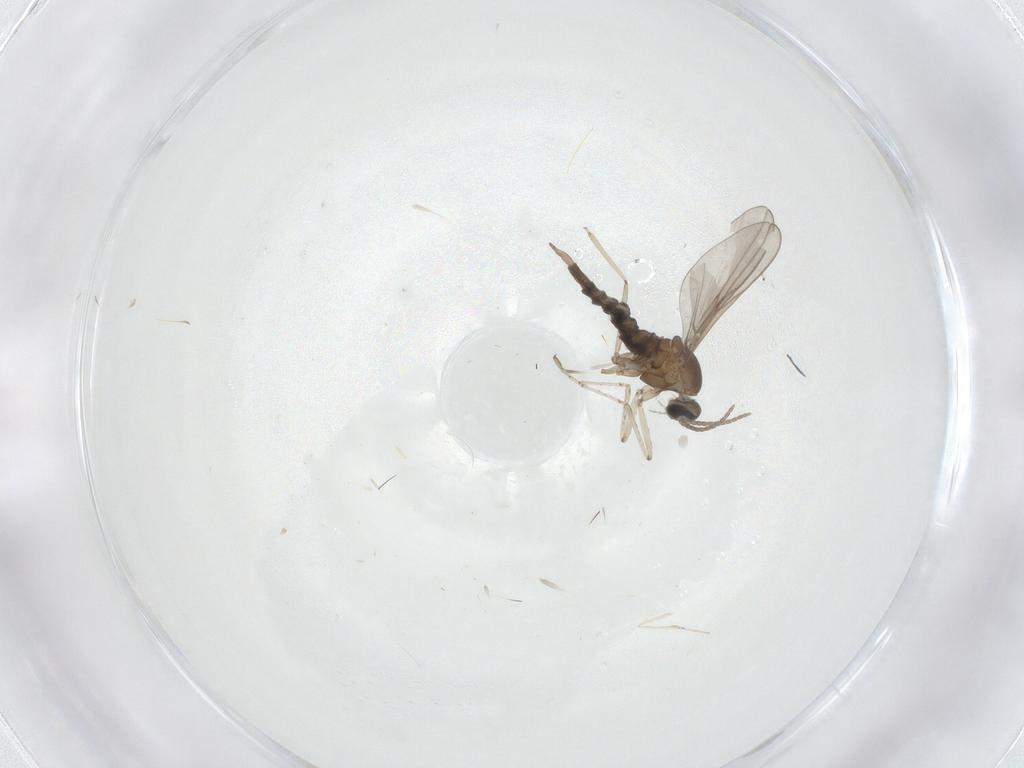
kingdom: Animalia
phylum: Arthropoda
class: Insecta
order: Diptera
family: Cecidomyiidae
